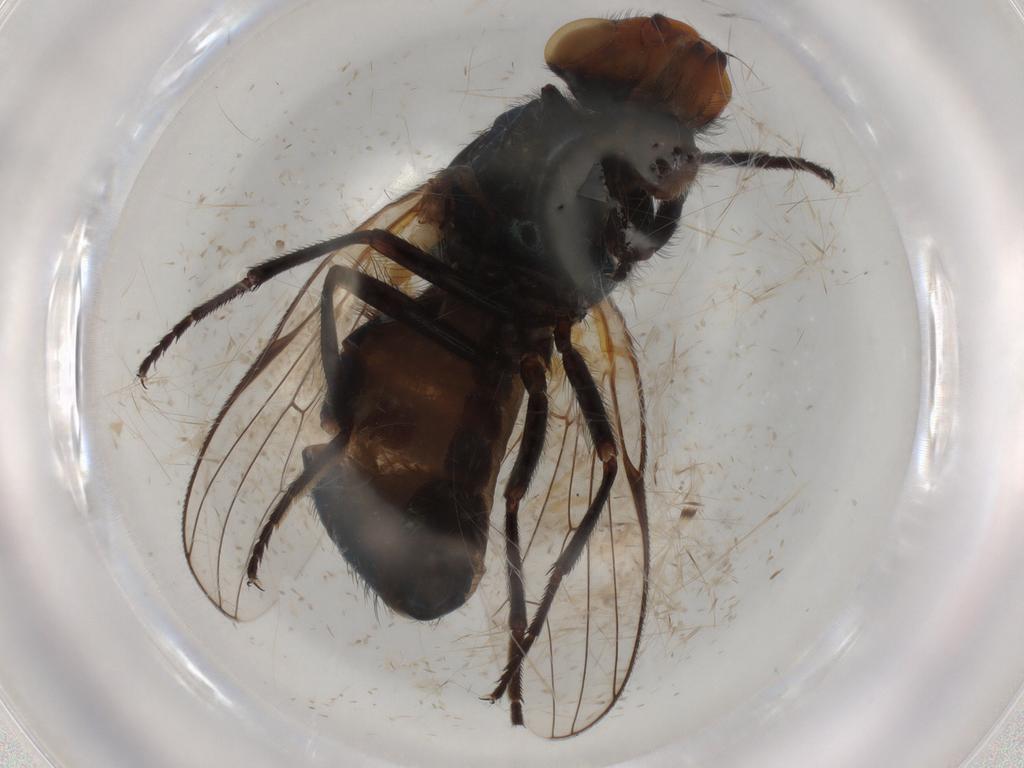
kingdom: Animalia
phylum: Arthropoda
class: Insecta
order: Diptera
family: Ulidiidae
